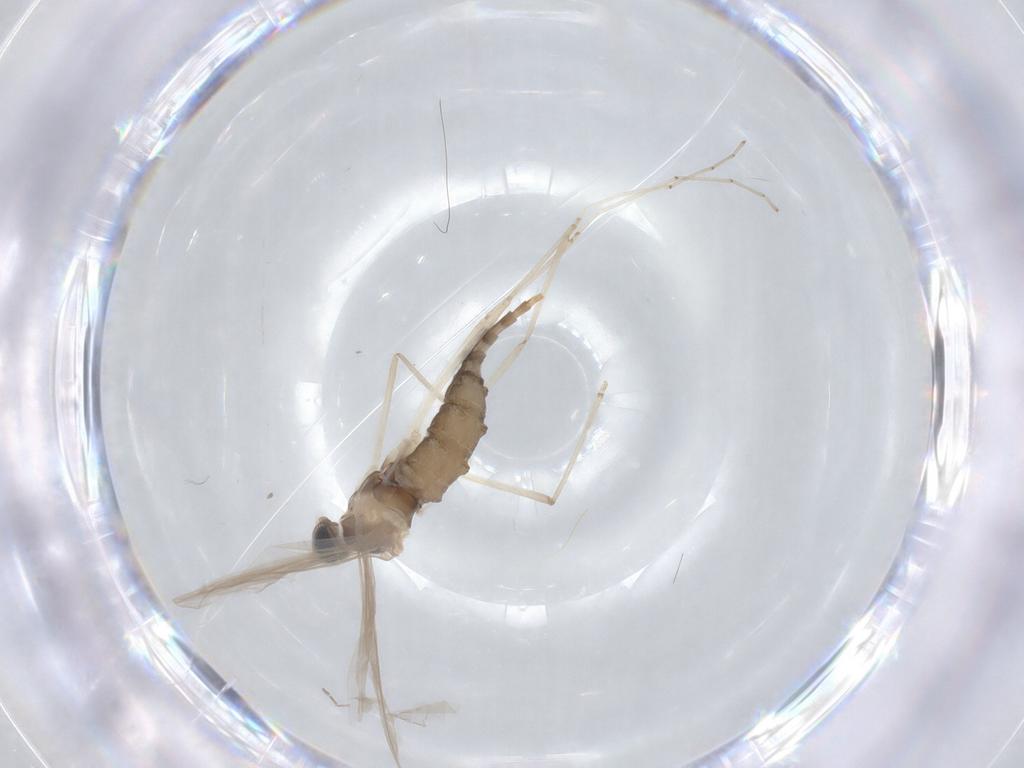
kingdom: Animalia
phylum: Arthropoda
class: Insecta
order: Diptera
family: Cecidomyiidae
